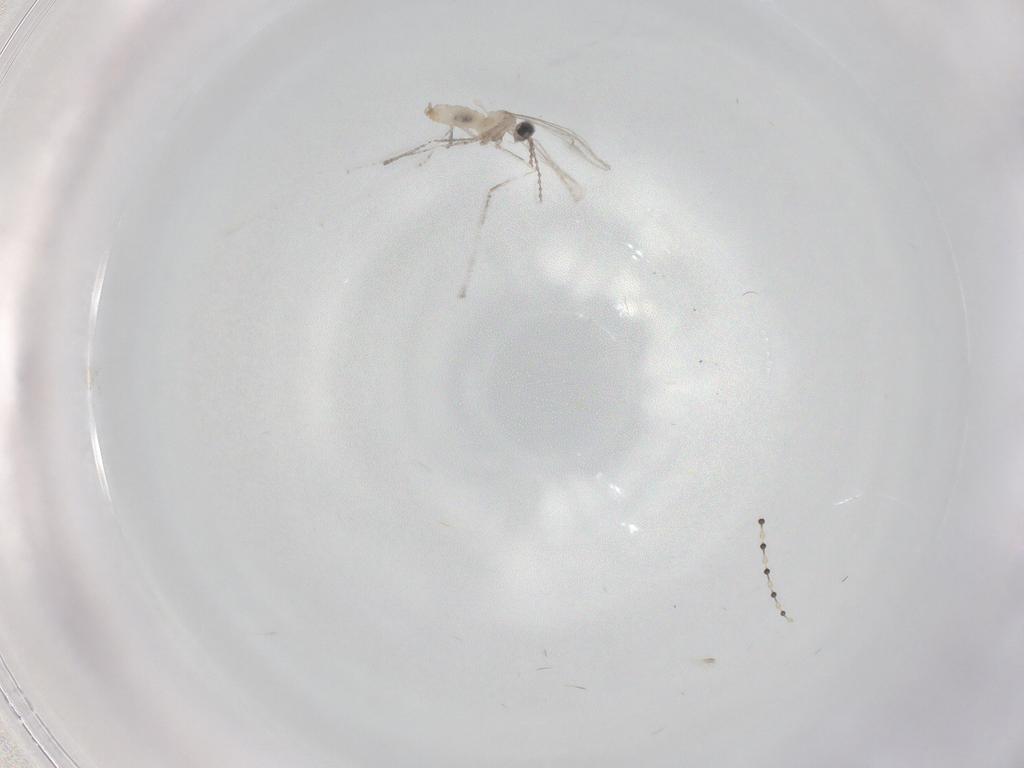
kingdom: Animalia
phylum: Arthropoda
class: Insecta
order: Diptera
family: Cecidomyiidae
